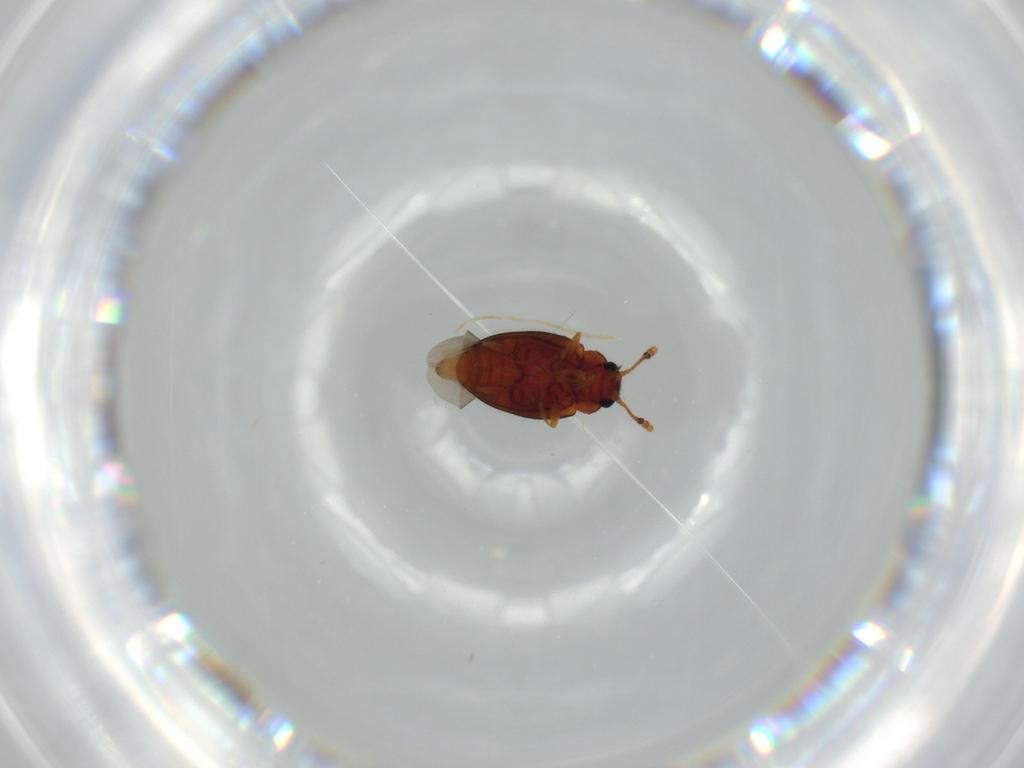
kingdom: Animalia
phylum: Arthropoda
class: Insecta
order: Coleoptera
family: Erotylidae
